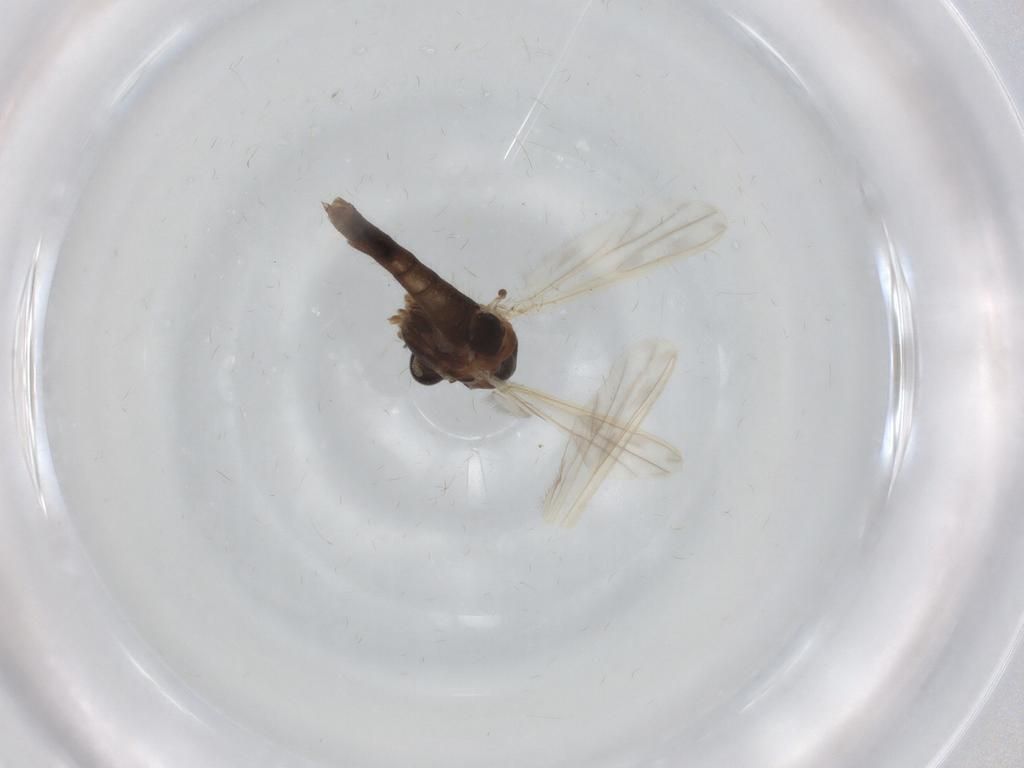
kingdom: Animalia
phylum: Arthropoda
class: Insecta
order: Diptera
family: Chironomidae
